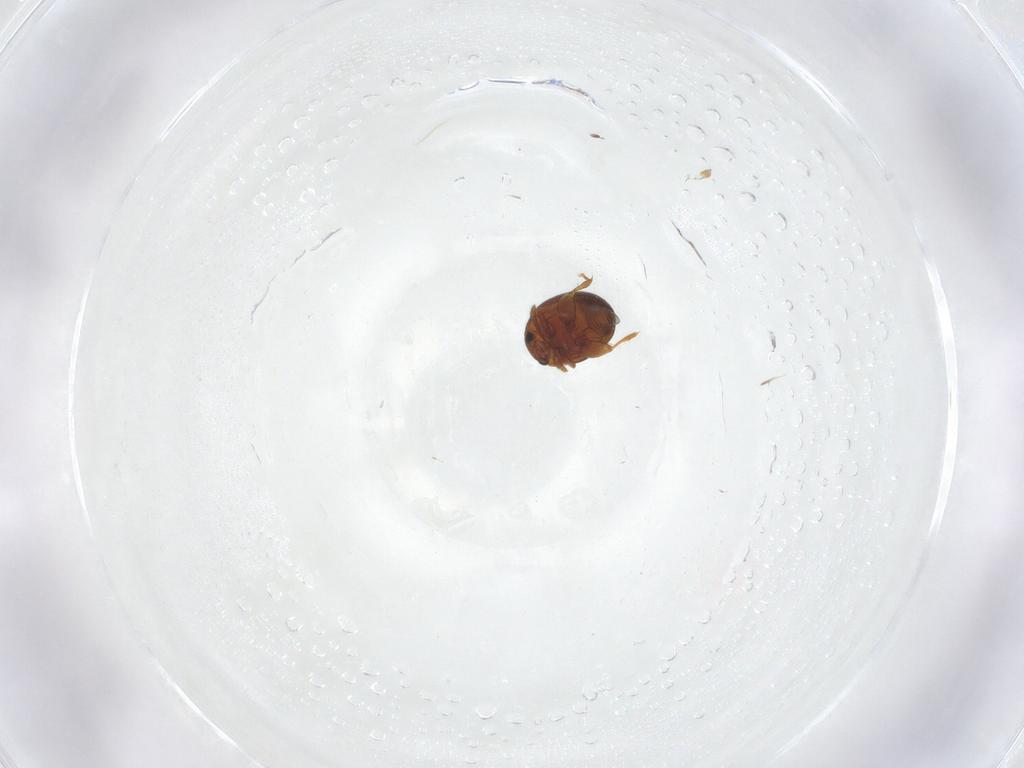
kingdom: Animalia
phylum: Arthropoda
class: Insecta
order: Coleoptera
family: Chrysomelidae
